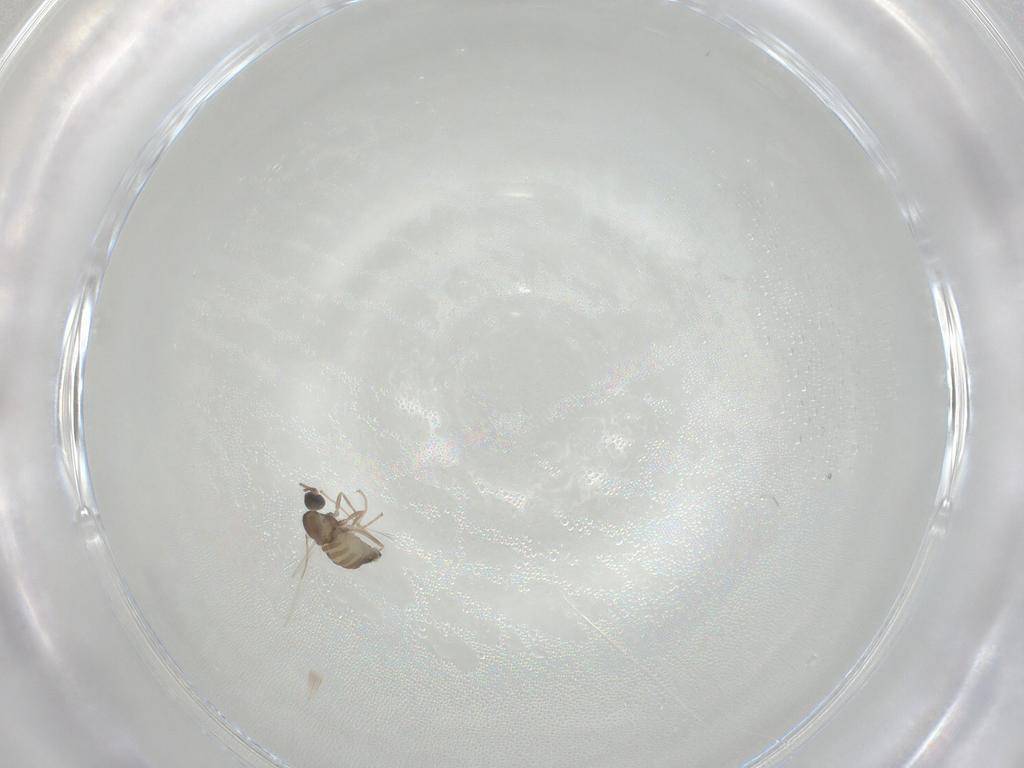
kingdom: Animalia
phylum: Arthropoda
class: Insecta
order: Diptera
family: Cecidomyiidae
